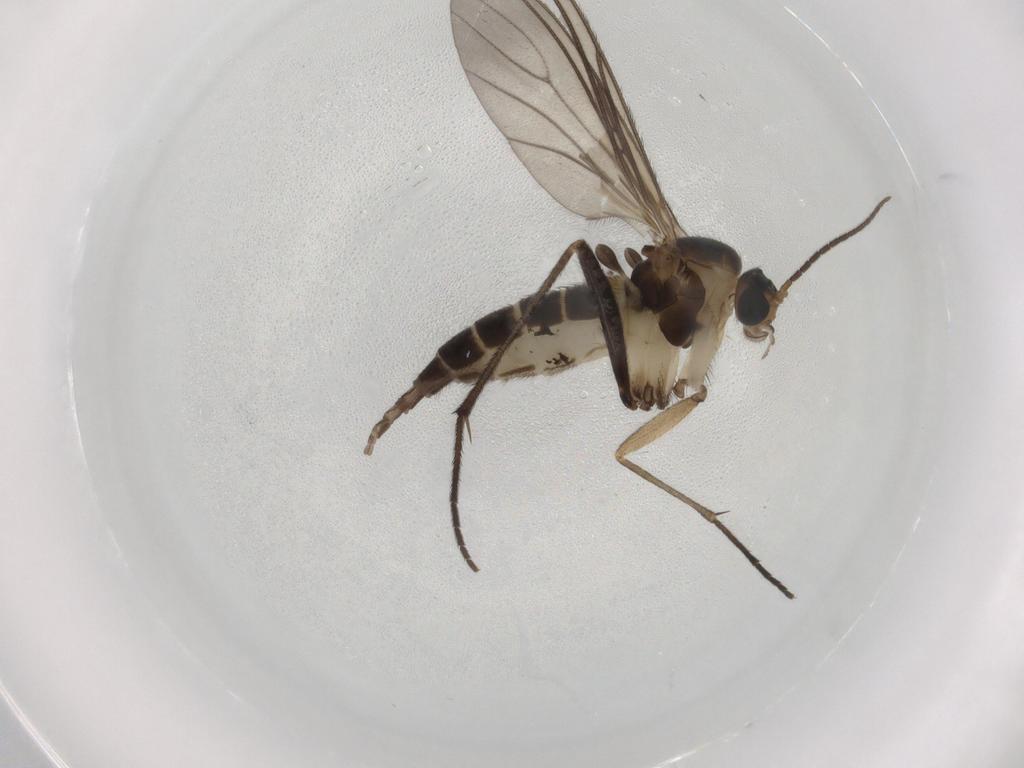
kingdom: Animalia
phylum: Arthropoda
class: Insecta
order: Diptera
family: Sciaridae
